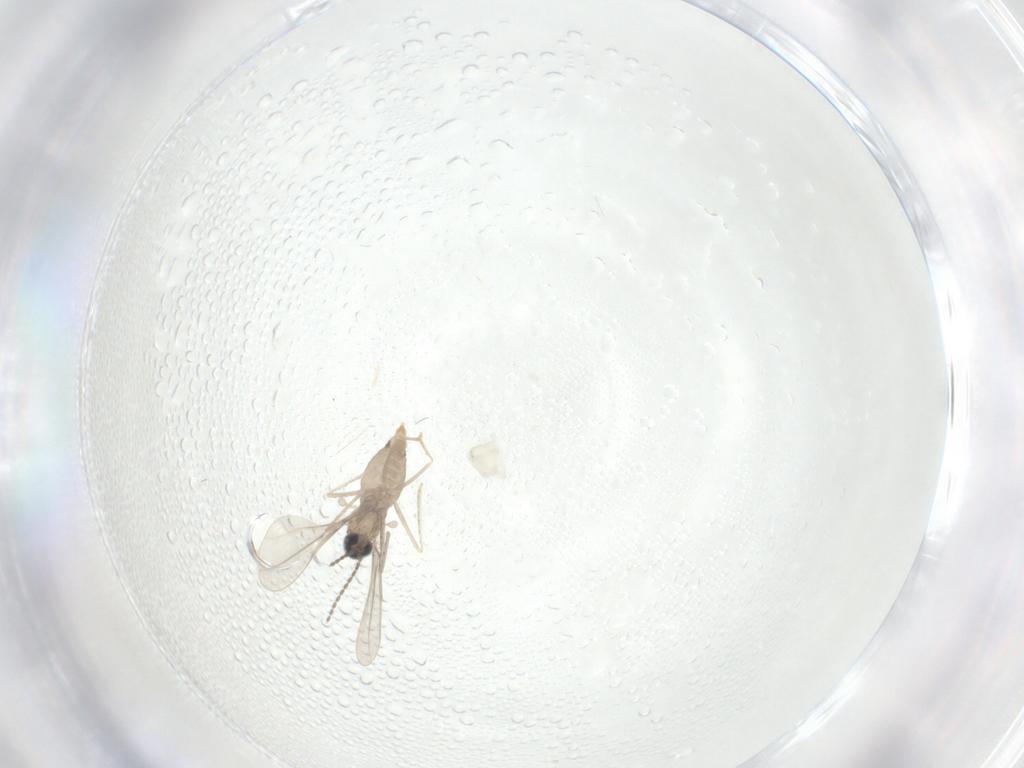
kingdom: Animalia
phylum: Arthropoda
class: Insecta
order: Diptera
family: Cecidomyiidae
